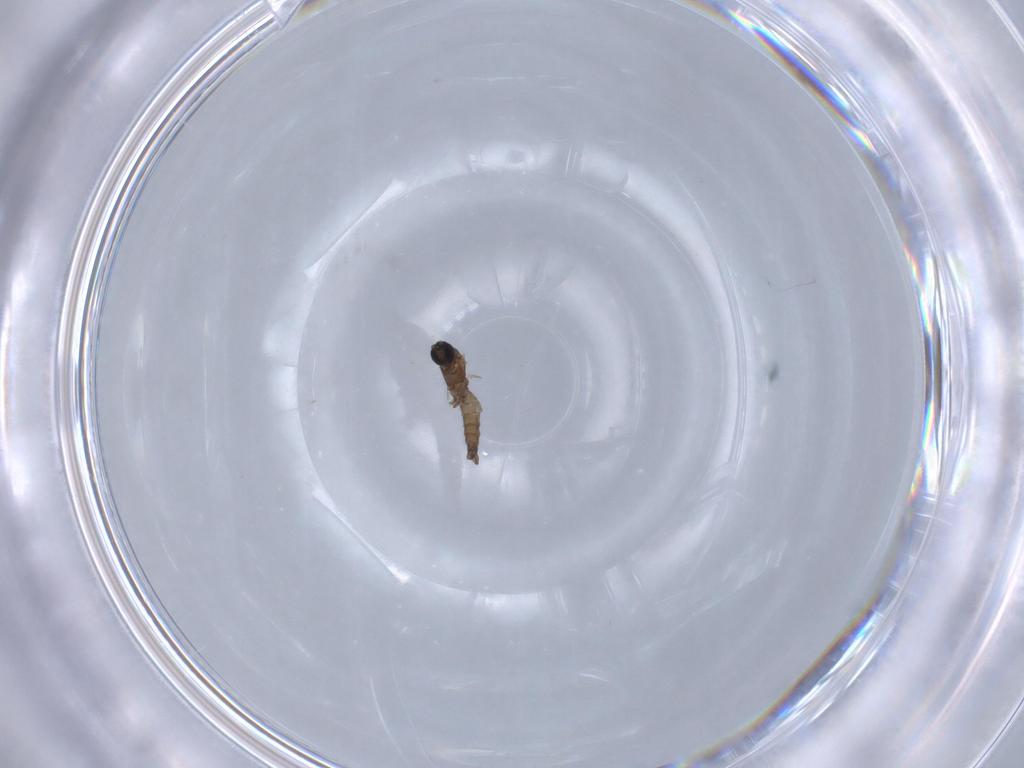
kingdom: Animalia
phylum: Arthropoda
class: Insecta
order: Diptera
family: Sciaridae
